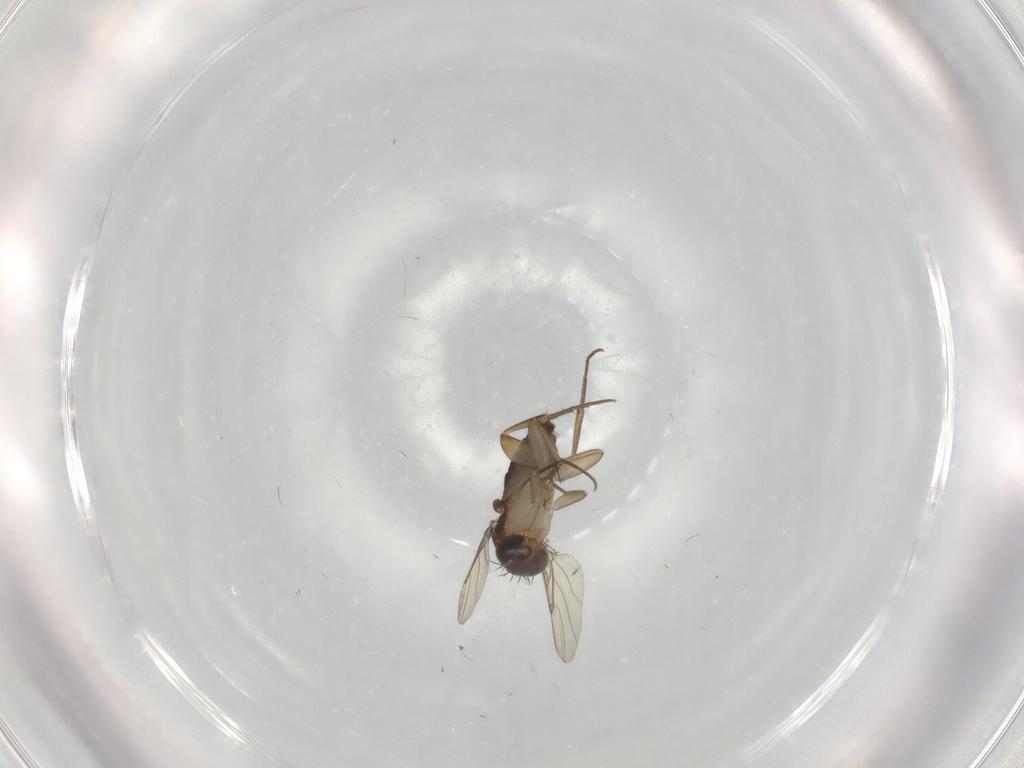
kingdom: Animalia
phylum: Arthropoda
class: Insecta
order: Diptera
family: Phoridae
